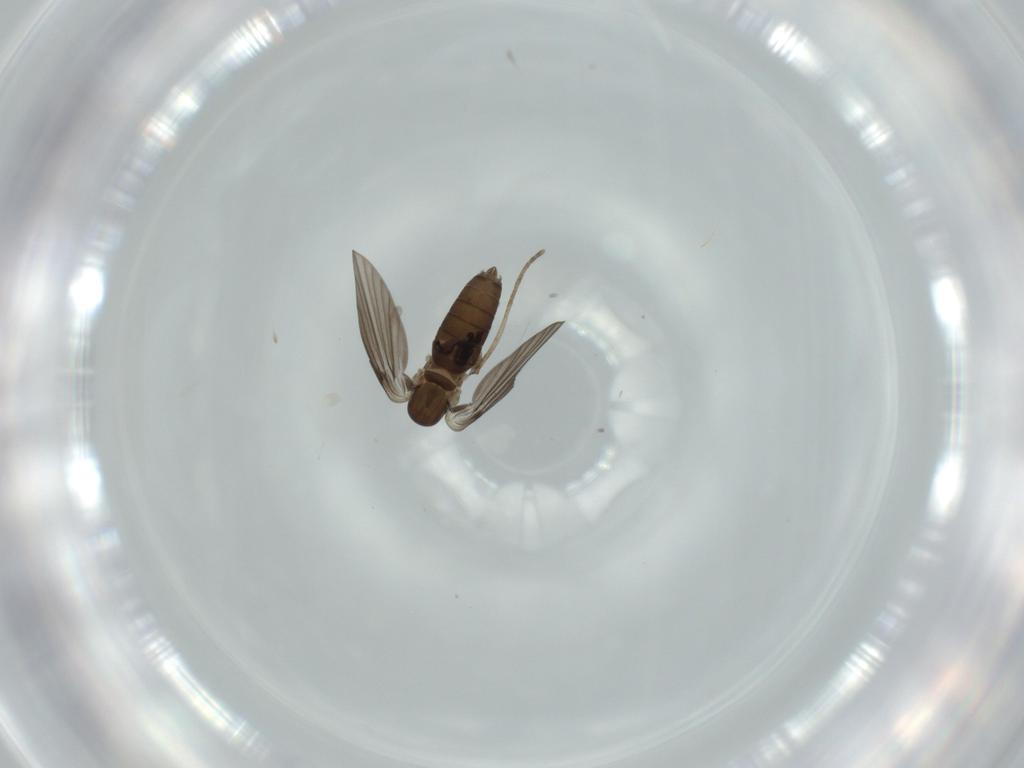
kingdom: Animalia
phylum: Arthropoda
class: Insecta
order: Diptera
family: Psychodidae
